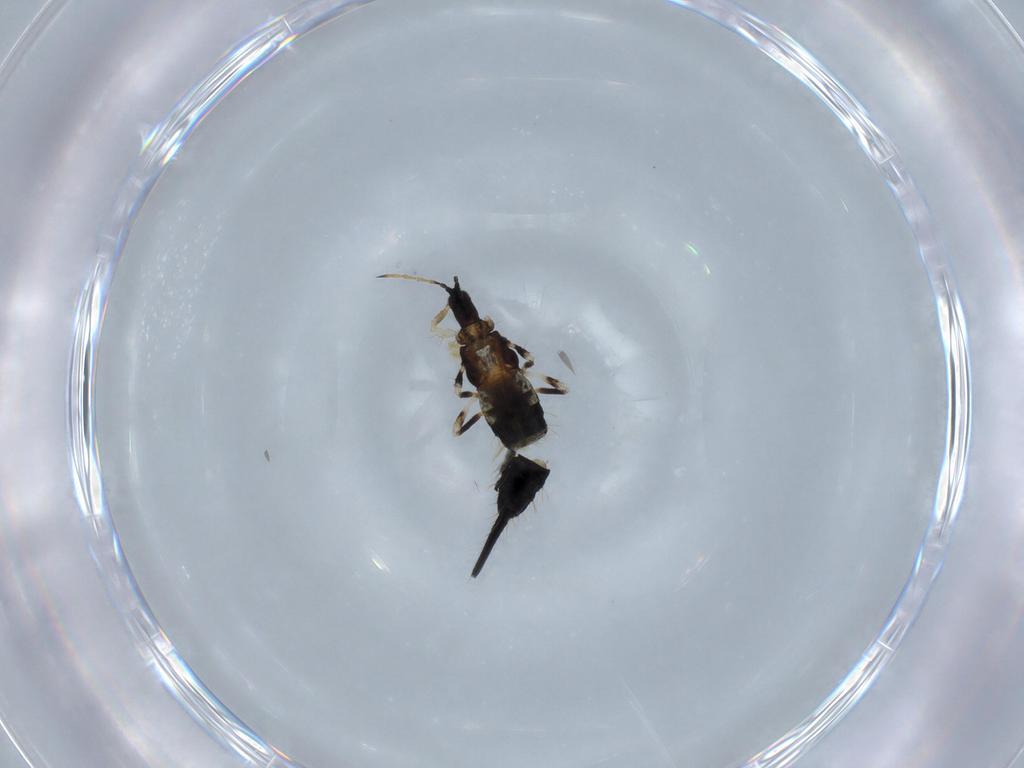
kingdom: Animalia
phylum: Arthropoda
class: Insecta
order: Thysanoptera
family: Phlaeothripidae
